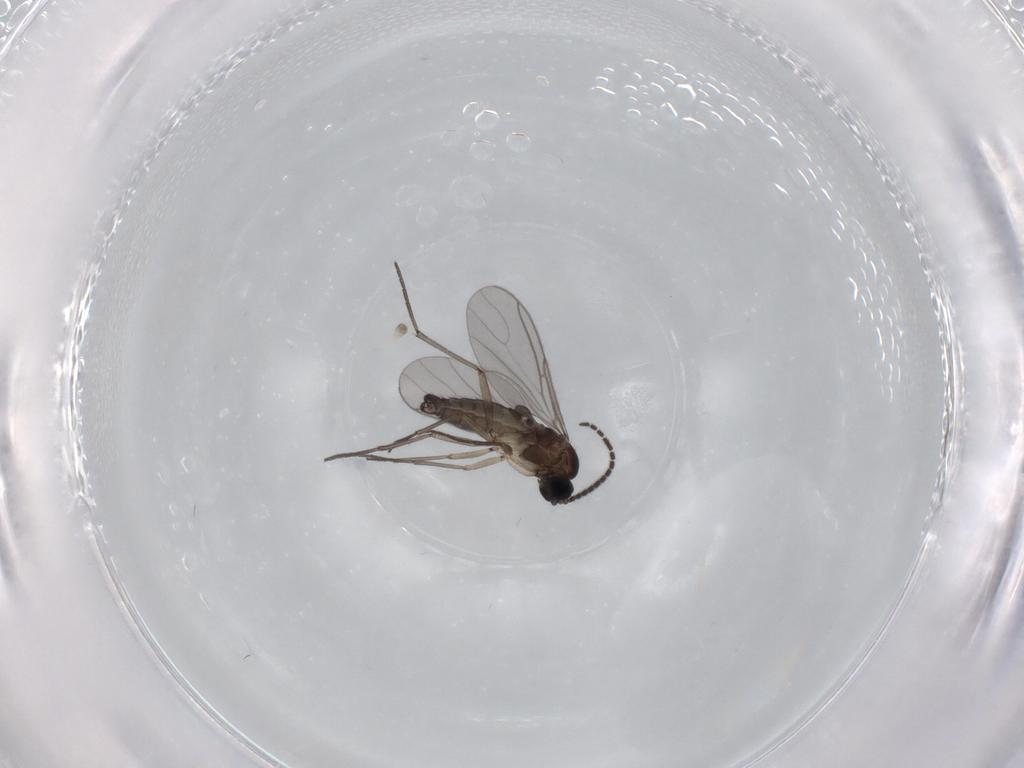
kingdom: Animalia
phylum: Arthropoda
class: Insecta
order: Diptera
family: Sciaridae
